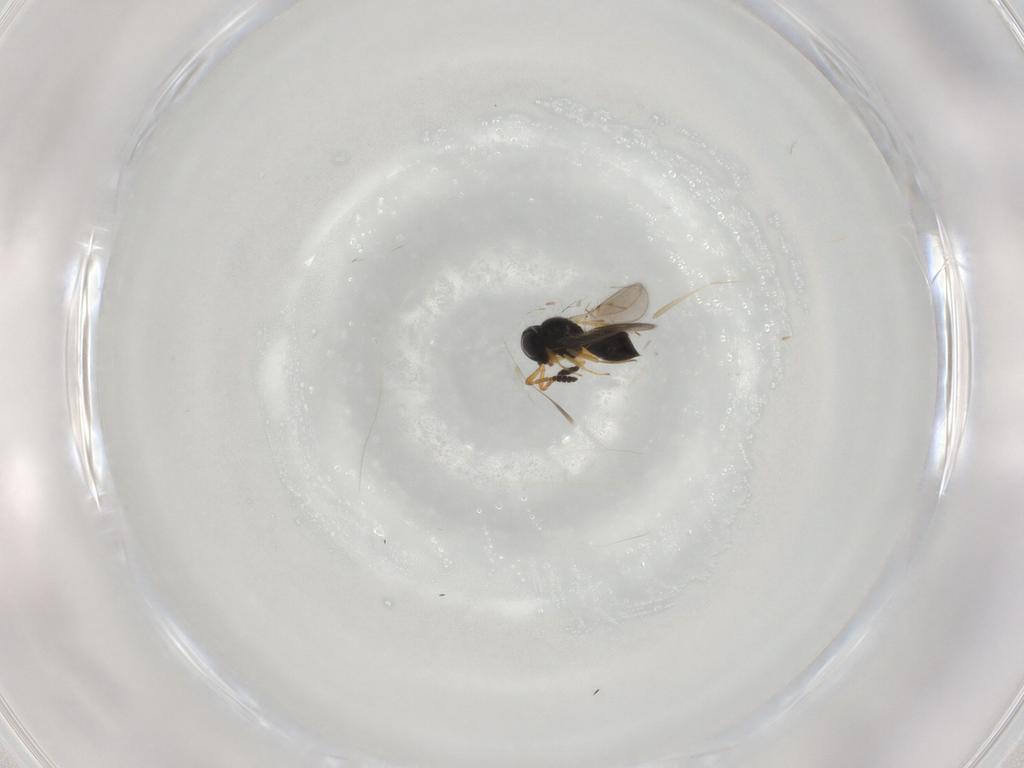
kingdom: Animalia
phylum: Arthropoda
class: Insecta
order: Hymenoptera
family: Scelionidae
